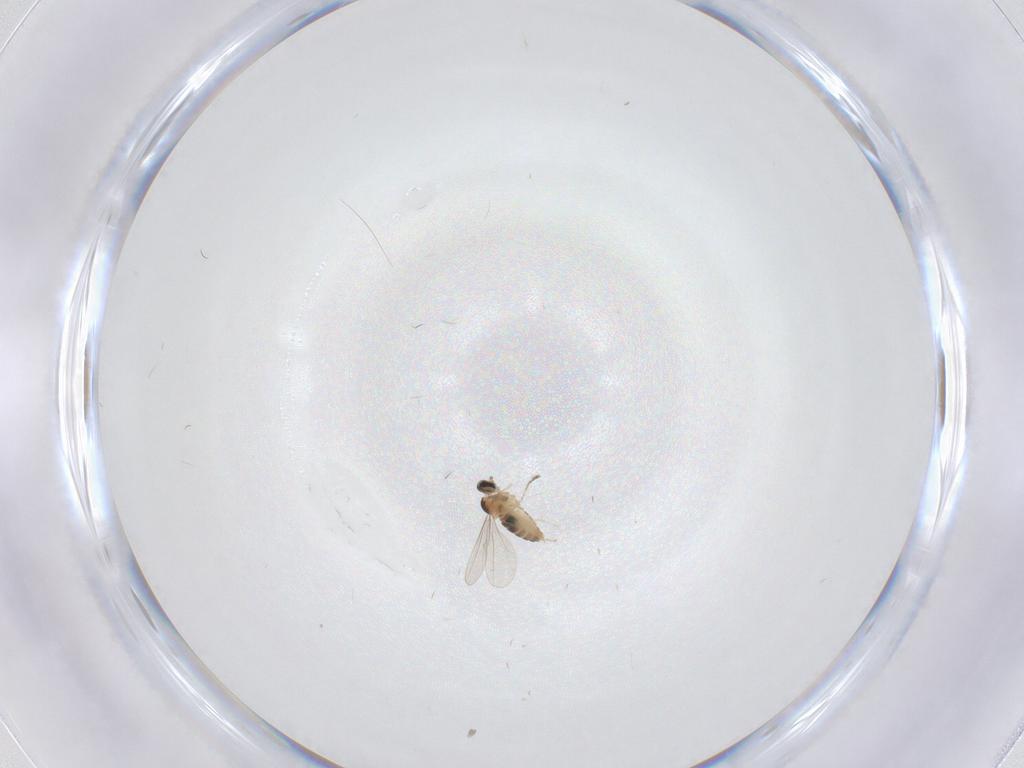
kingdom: Animalia
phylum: Arthropoda
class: Insecta
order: Diptera
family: Cecidomyiidae
